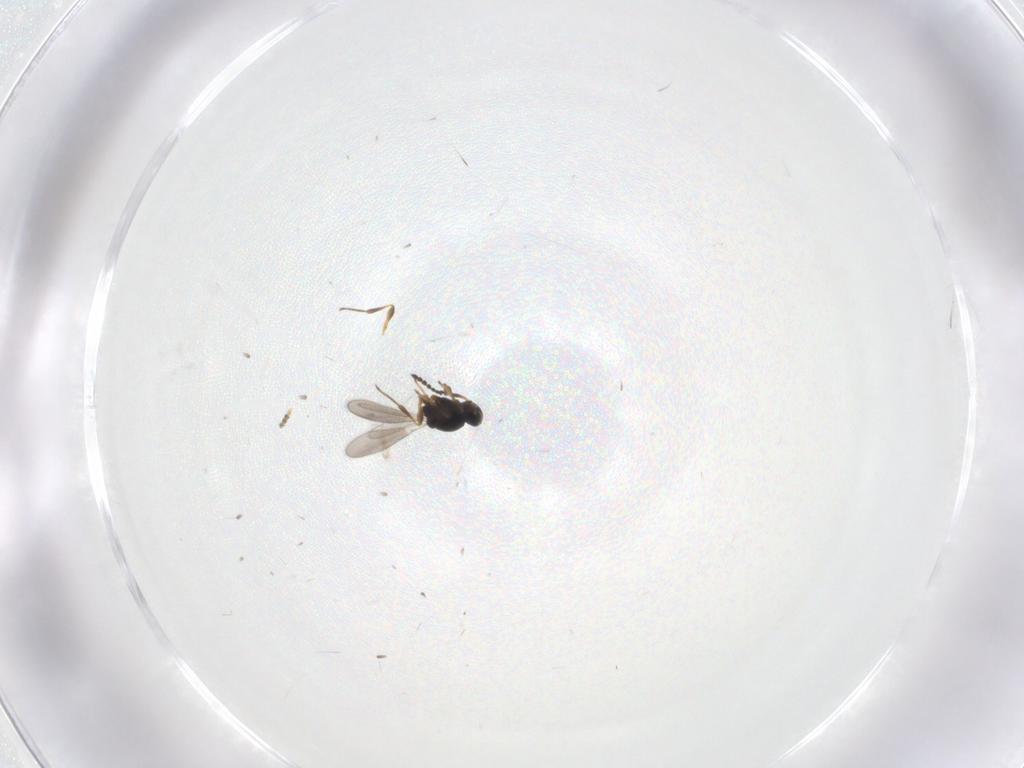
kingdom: Animalia
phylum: Arthropoda
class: Insecta
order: Hymenoptera
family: Platygastridae
